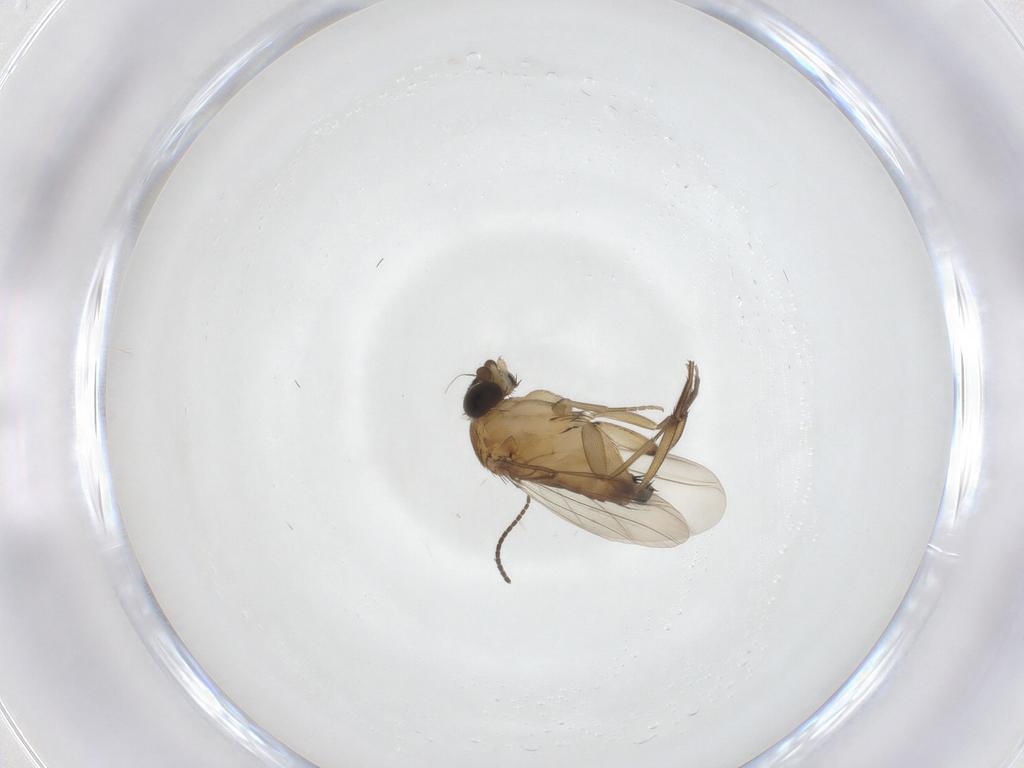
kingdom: Animalia
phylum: Arthropoda
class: Insecta
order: Diptera
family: Phoridae
